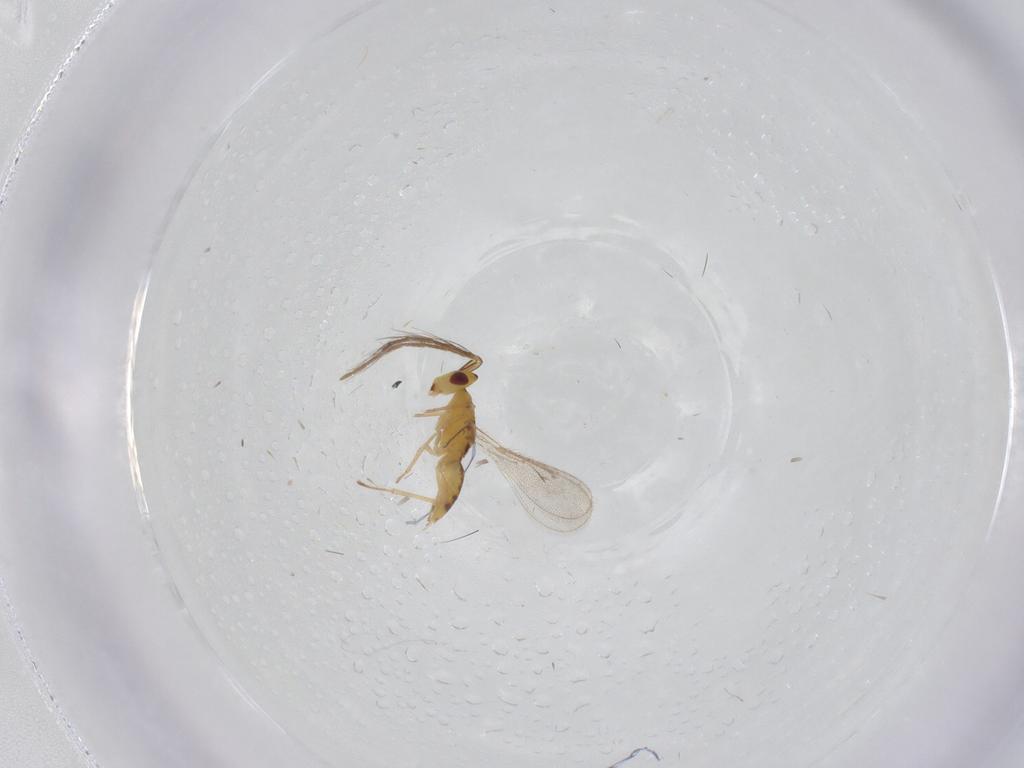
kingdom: Animalia
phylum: Arthropoda
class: Insecta
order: Hymenoptera
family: Eulophidae
